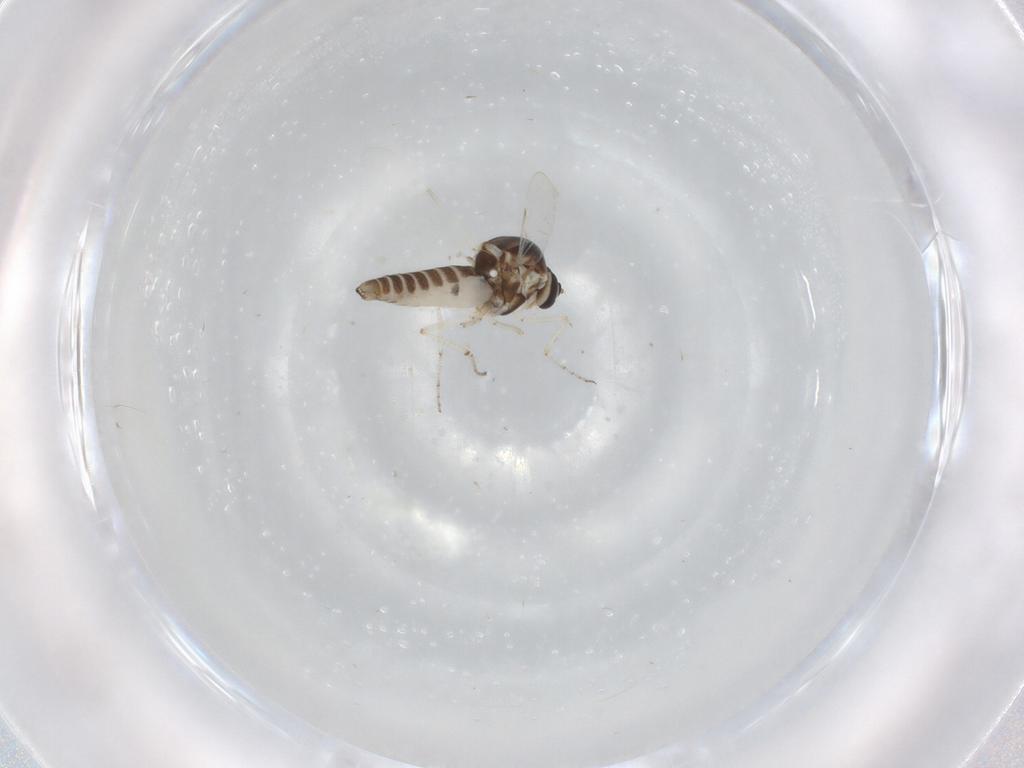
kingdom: Animalia
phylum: Arthropoda
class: Insecta
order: Diptera
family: Ceratopogonidae
